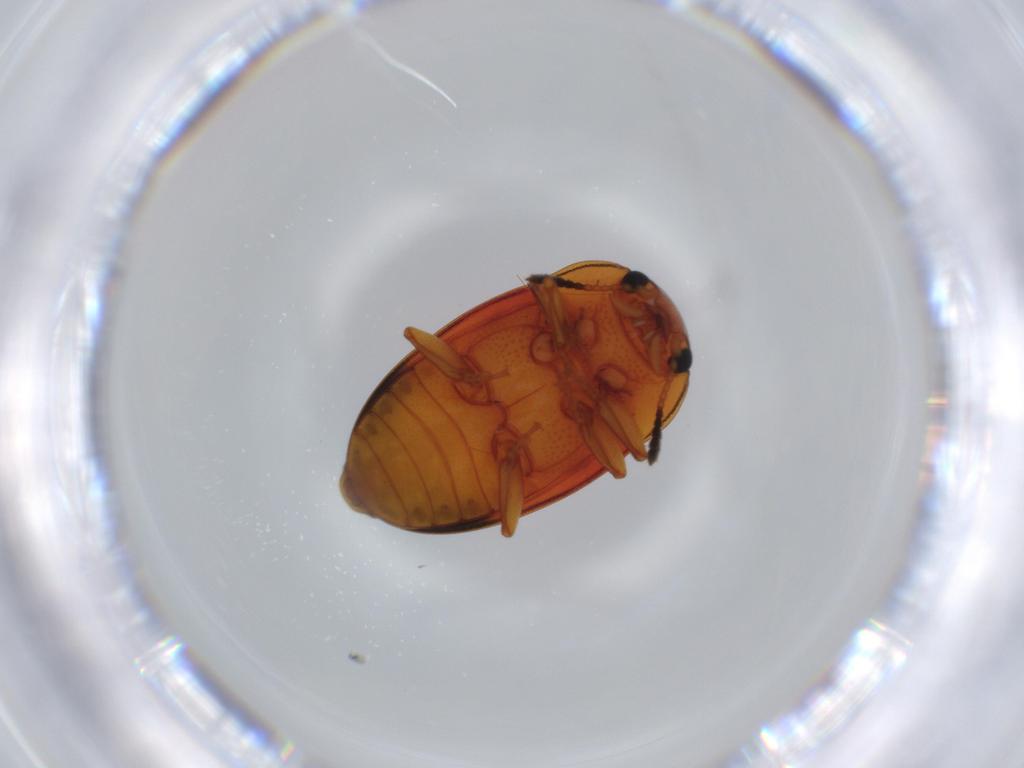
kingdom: Animalia
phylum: Arthropoda
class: Insecta
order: Coleoptera
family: Erotylidae
